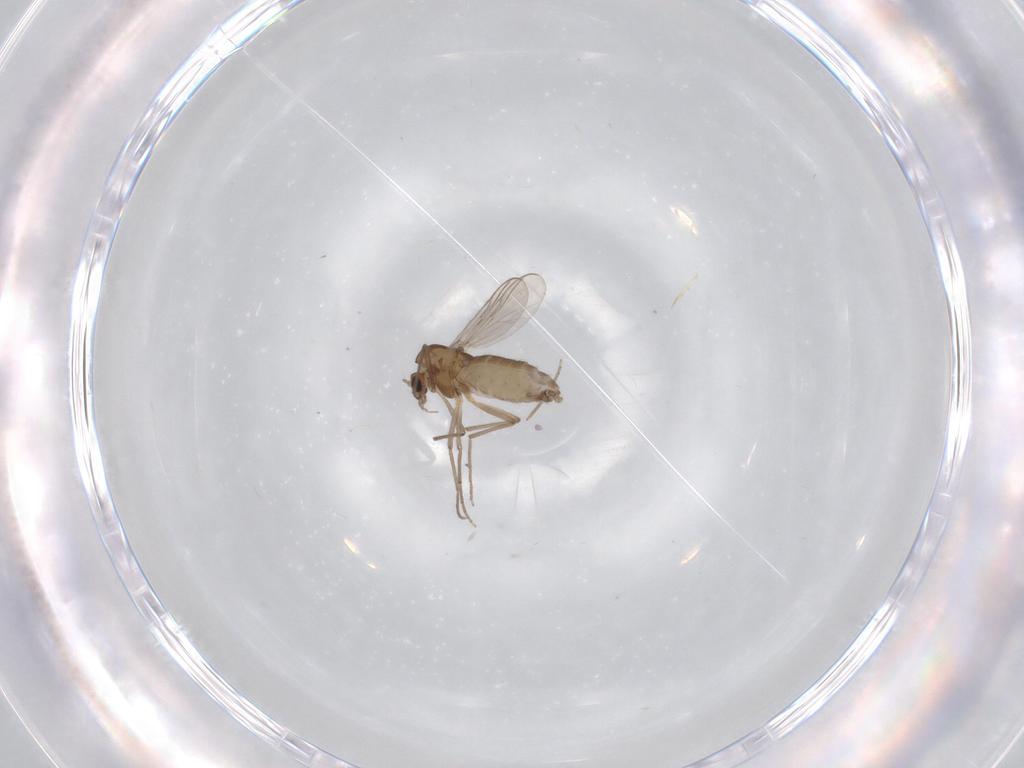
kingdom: Animalia
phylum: Arthropoda
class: Insecta
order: Diptera
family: Chironomidae
